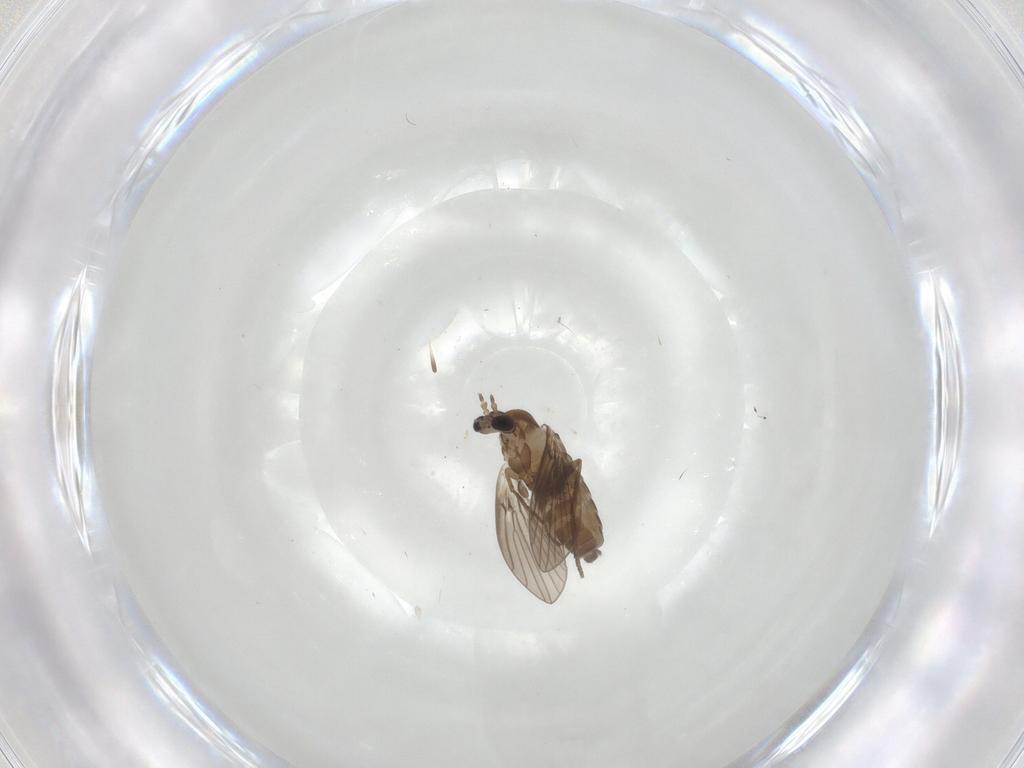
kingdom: Animalia
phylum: Arthropoda
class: Insecta
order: Diptera
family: Psychodidae
